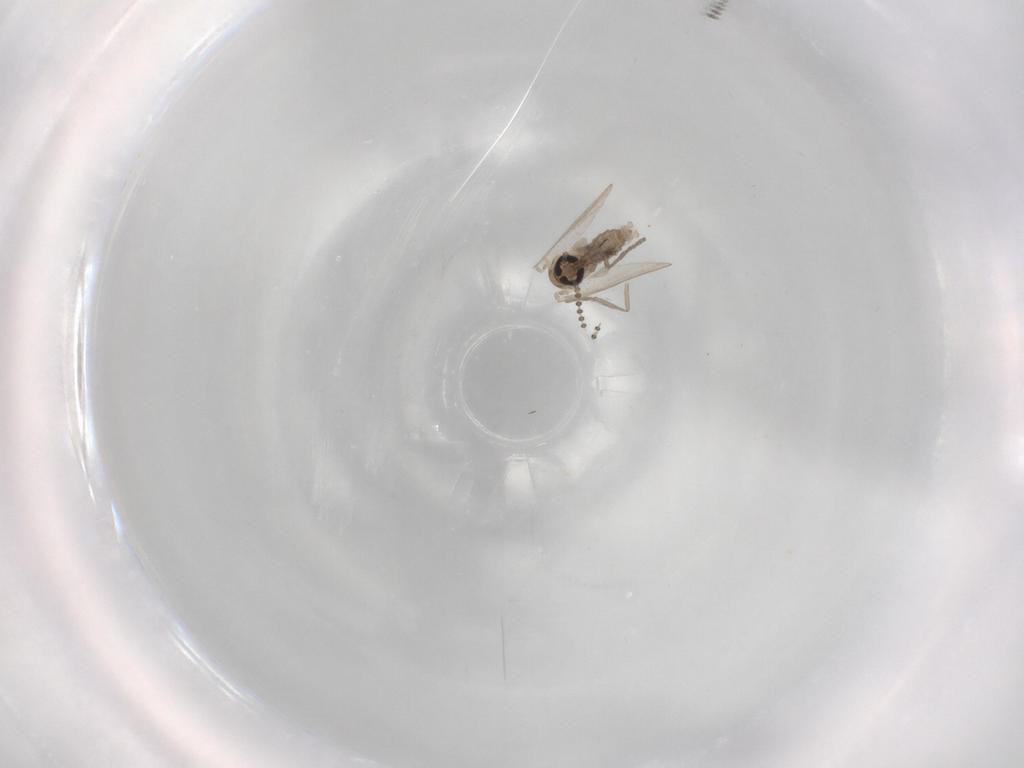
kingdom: Animalia
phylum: Arthropoda
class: Insecta
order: Diptera
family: Psychodidae
